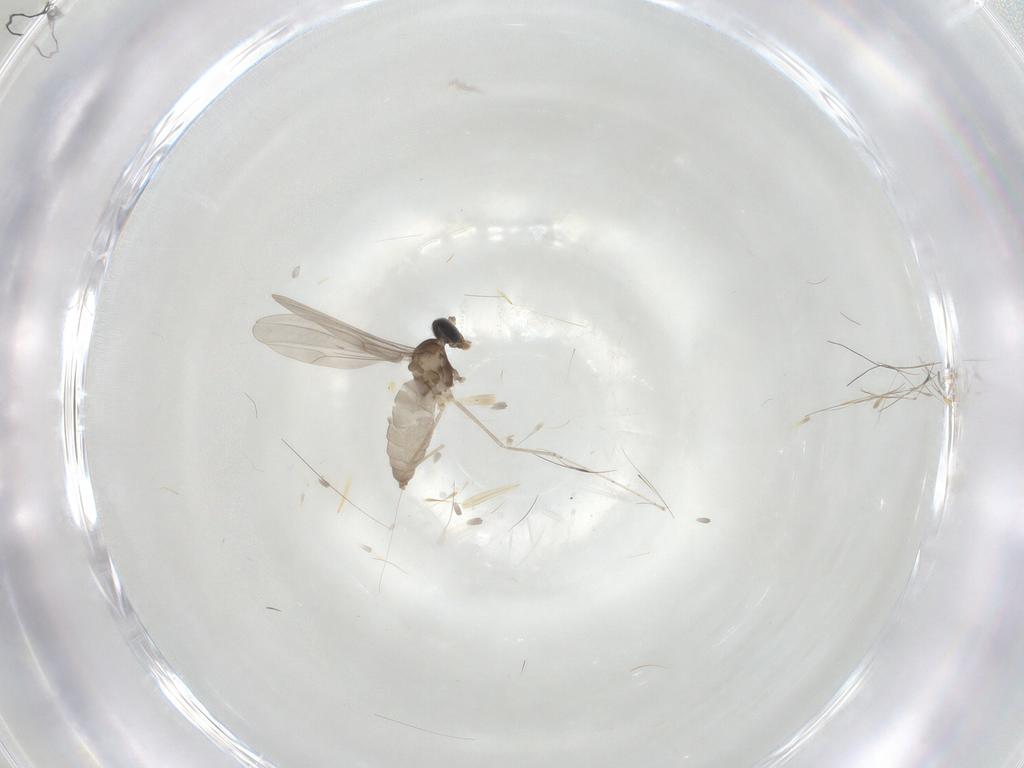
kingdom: Animalia
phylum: Arthropoda
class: Insecta
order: Diptera
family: Cecidomyiidae
